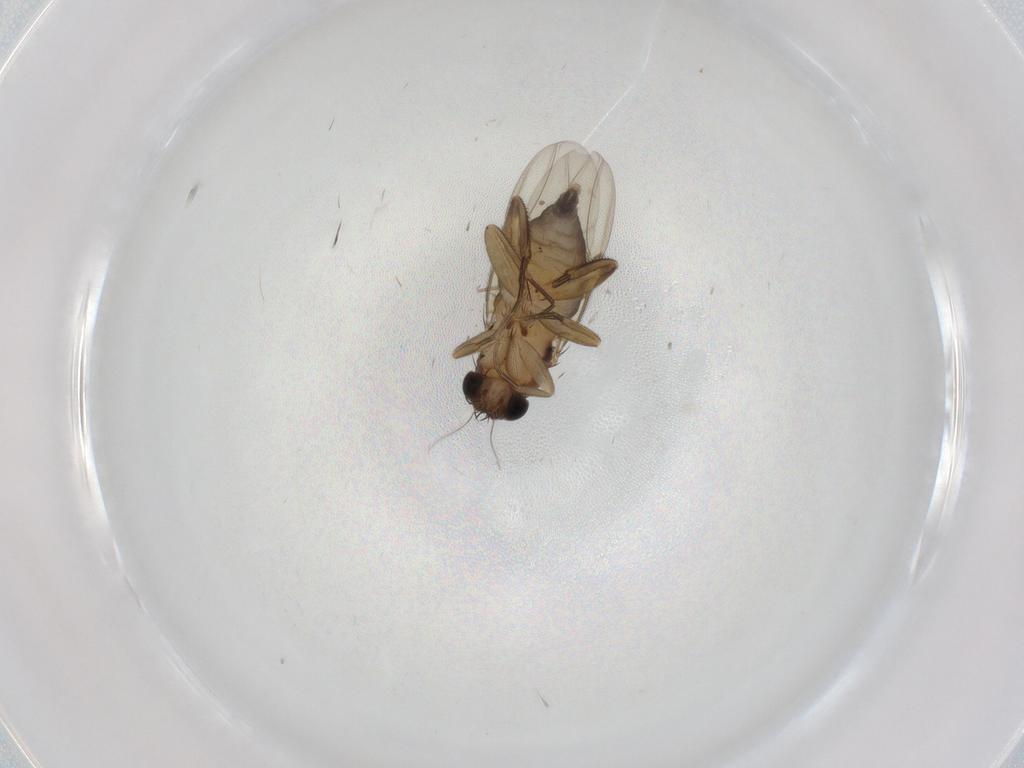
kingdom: Animalia
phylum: Arthropoda
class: Insecta
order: Diptera
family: Phoridae
